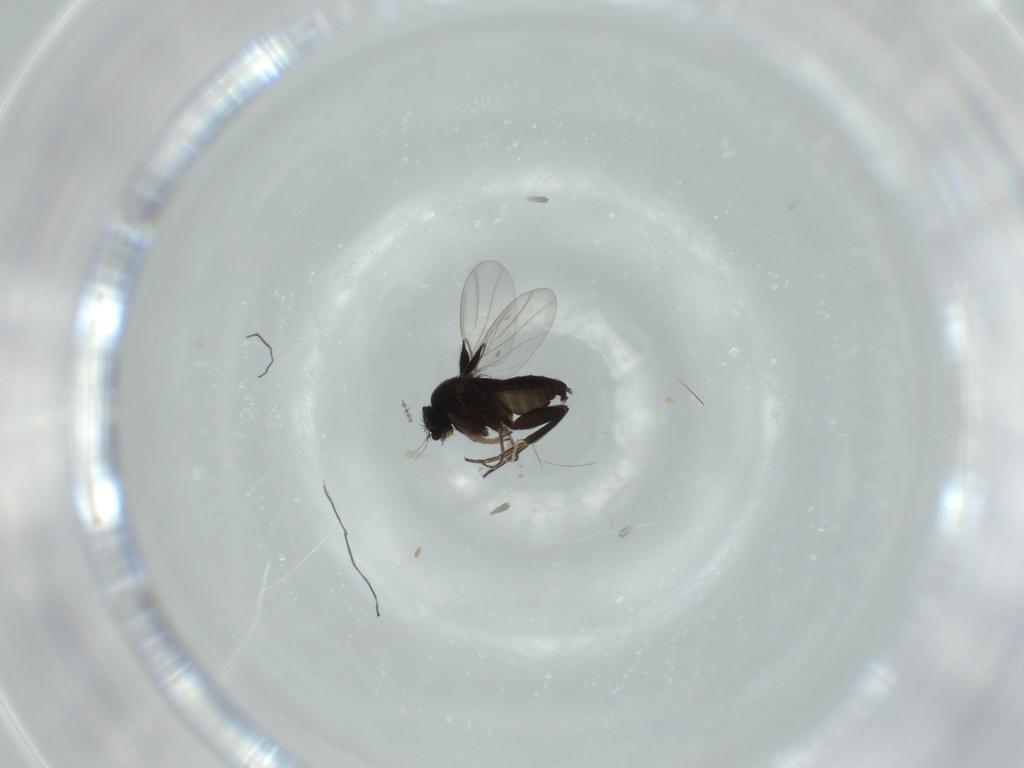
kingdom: Animalia
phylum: Arthropoda
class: Insecta
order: Diptera
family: Phoridae
